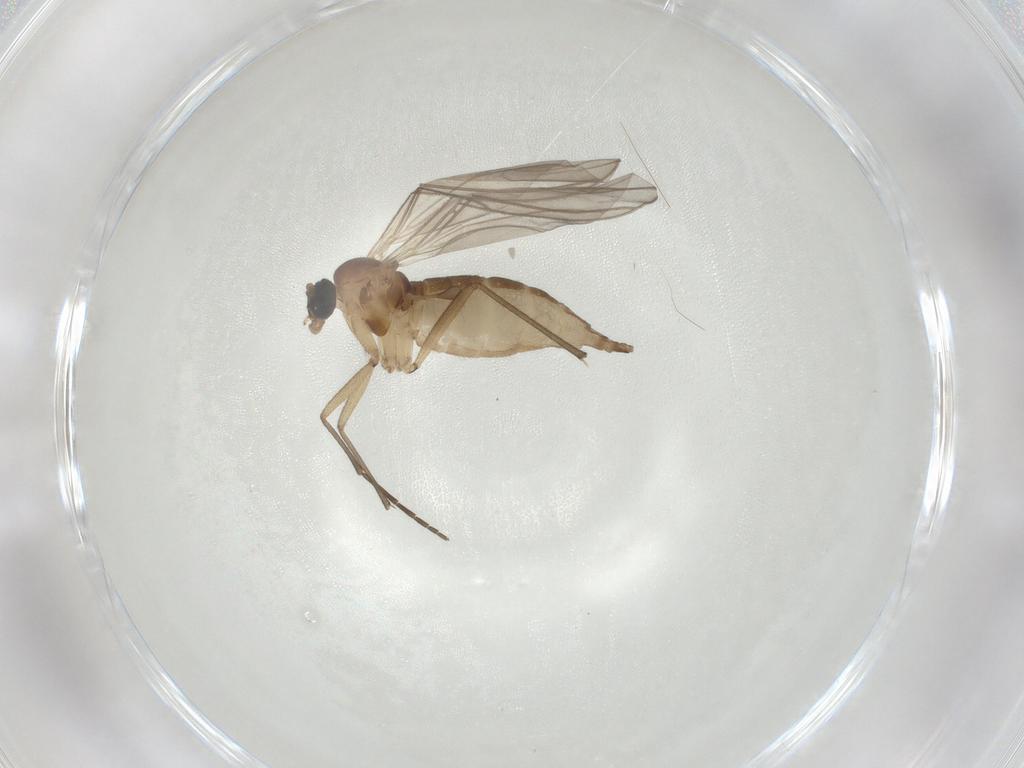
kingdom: Animalia
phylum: Arthropoda
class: Insecta
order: Diptera
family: Sciaridae
